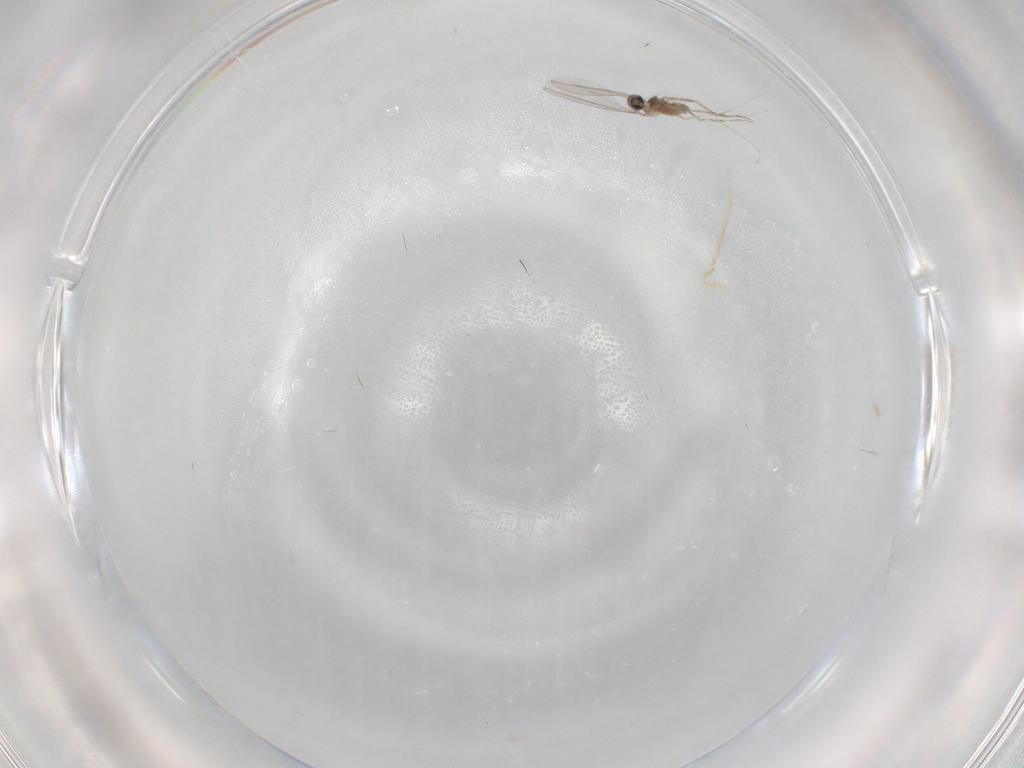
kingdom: Animalia
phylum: Arthropoda
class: Insecta
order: Diptera
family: Cecidomyiidae
